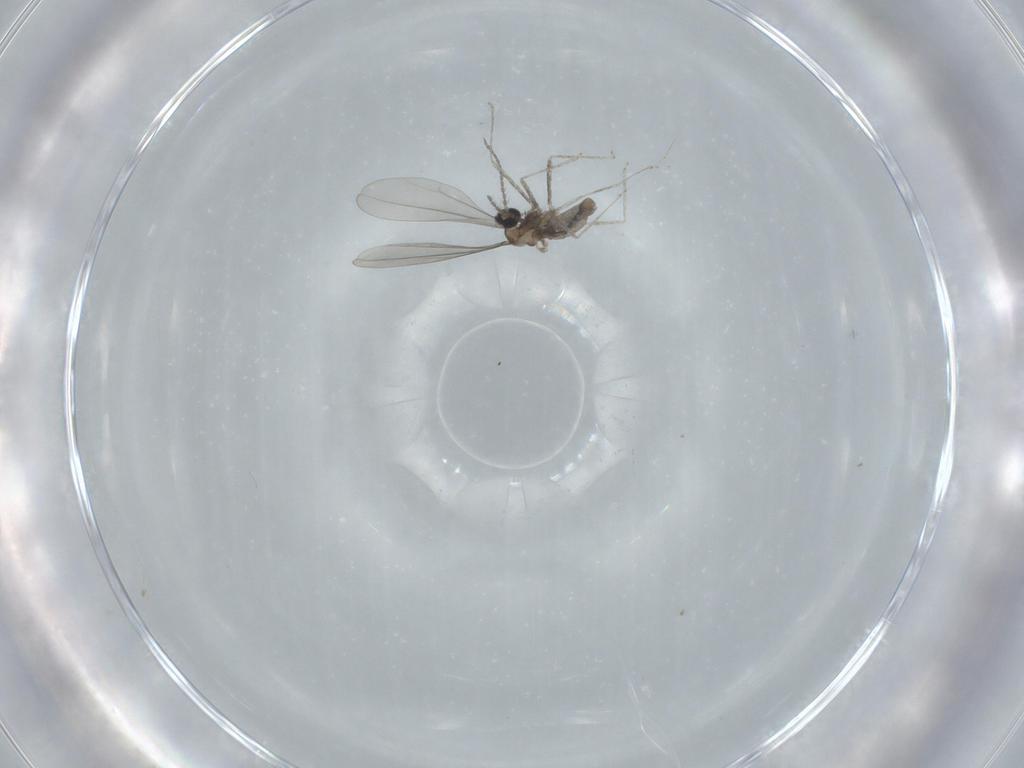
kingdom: Animalia
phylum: Arthropoda
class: Insecta
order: Diptera
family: Cecidomyiidae
